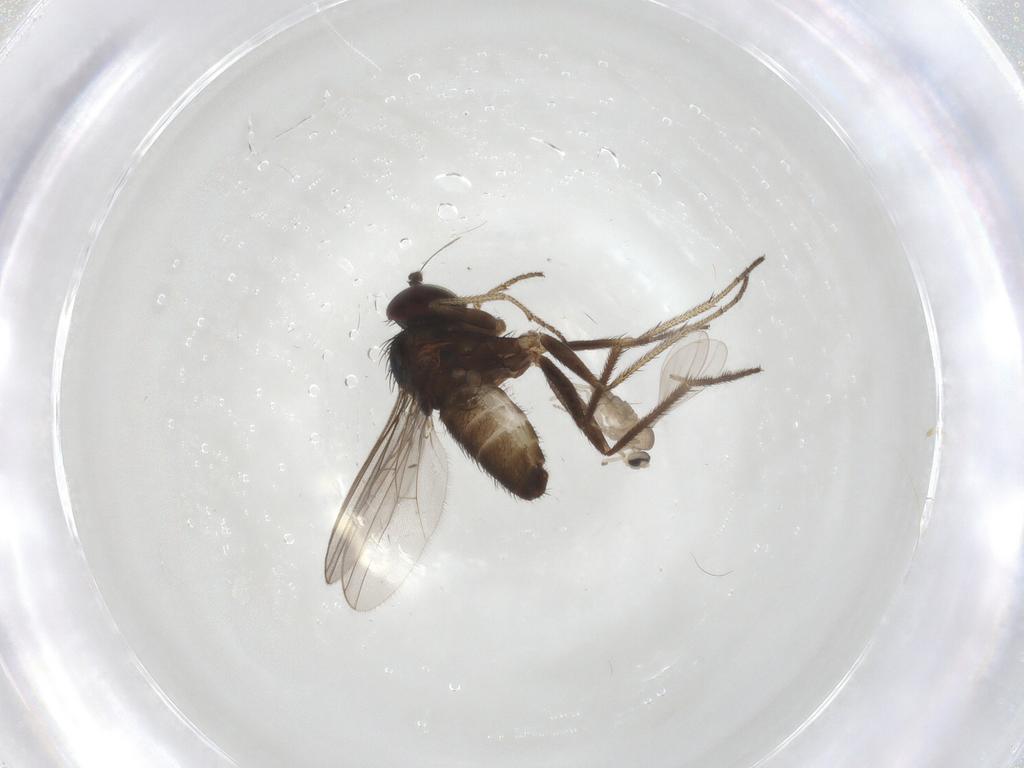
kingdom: Animalia
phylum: Arthropoda
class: Insecta
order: Diptera
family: Cecidomyiidae
